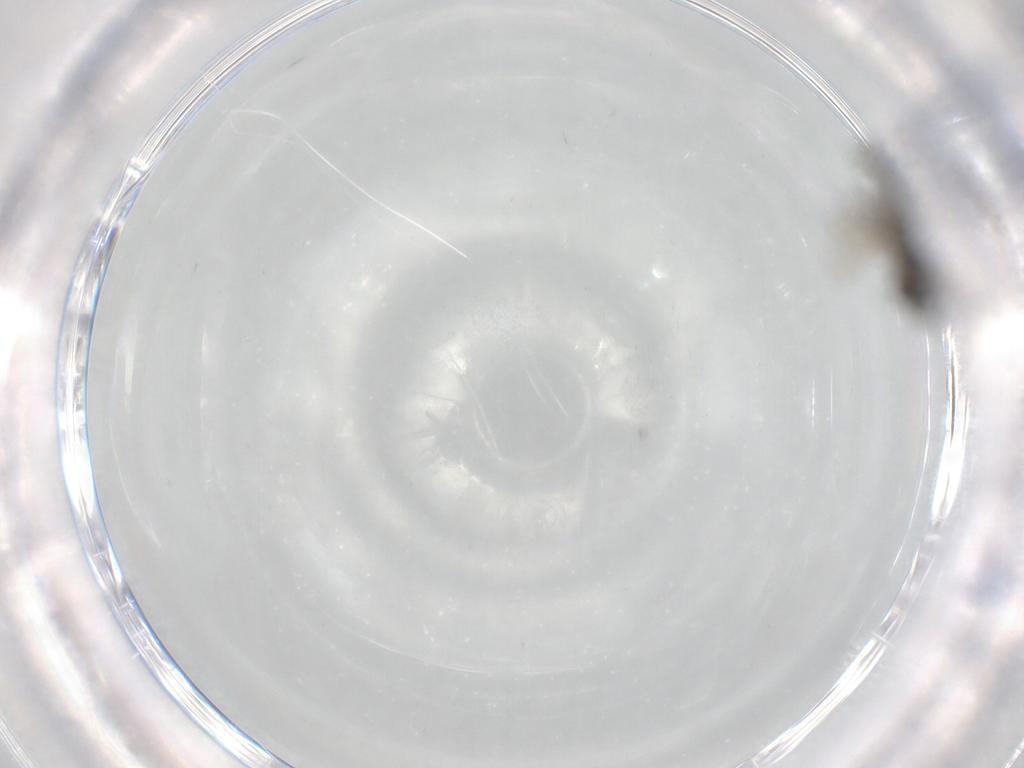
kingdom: Animalia
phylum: Arthropoda
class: Insecta
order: Diptera
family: Sciaridae
